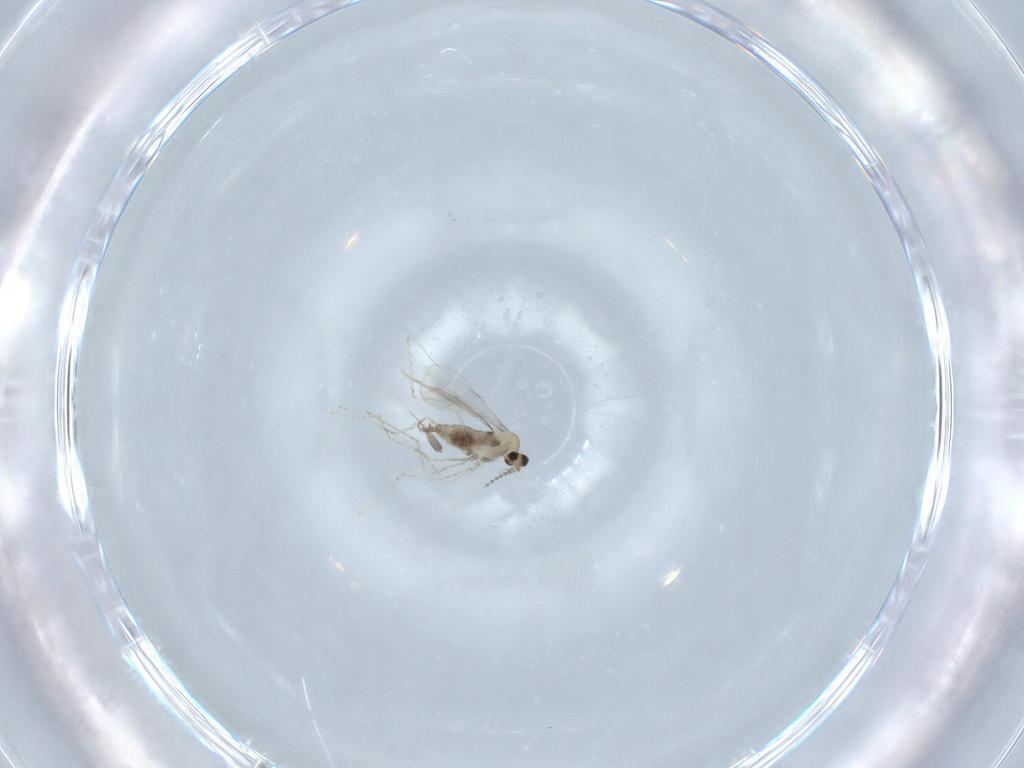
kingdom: Animalia
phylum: Arthropoda
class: Insecta
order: Diptera
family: Cecidomyiidae
